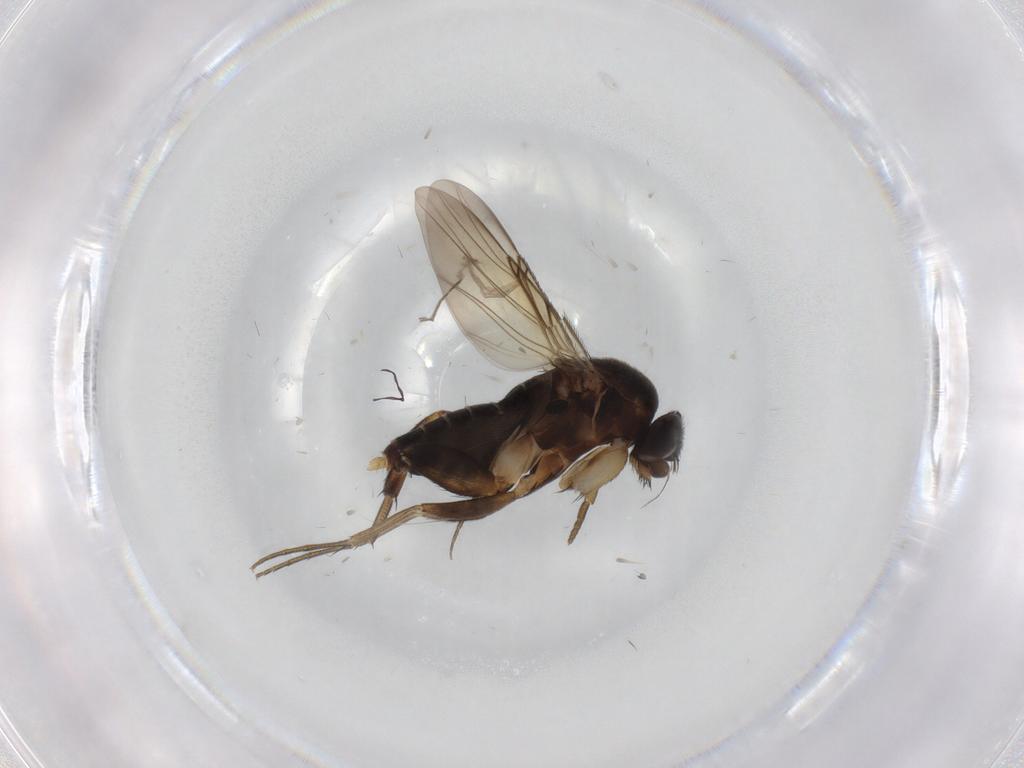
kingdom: Animalia
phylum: Arthropoda
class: Insecta
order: Diptera
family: Phoridae
